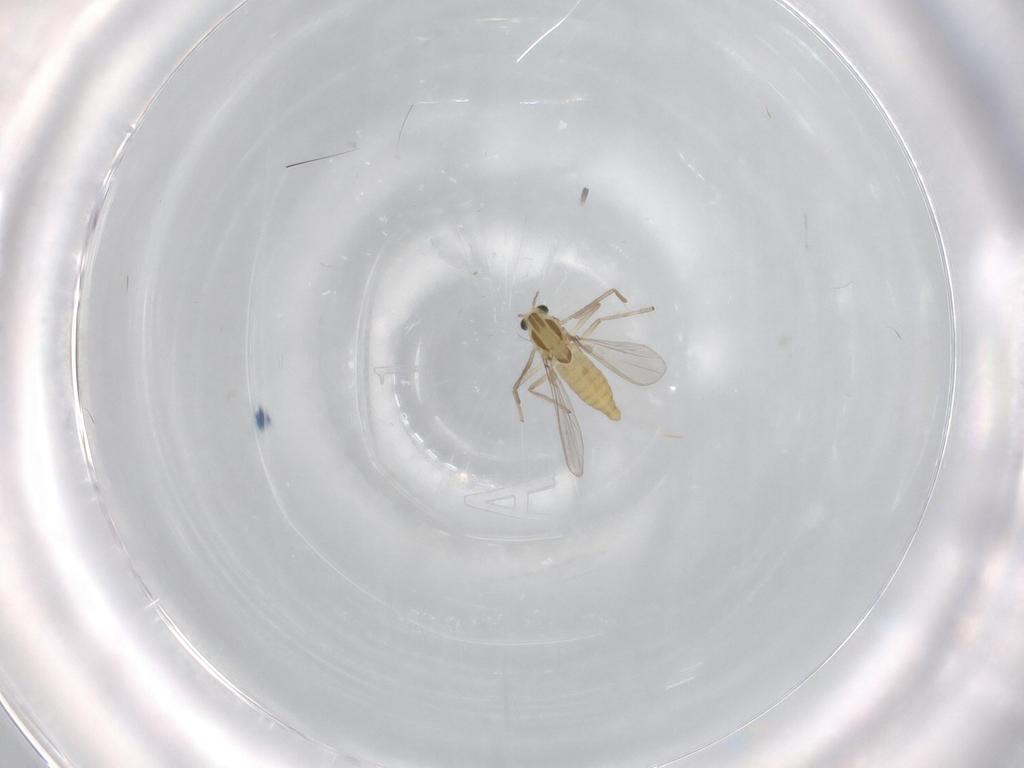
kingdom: Animalia
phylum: Arthropoda
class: Insecta
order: Diptera
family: Chironomidae
